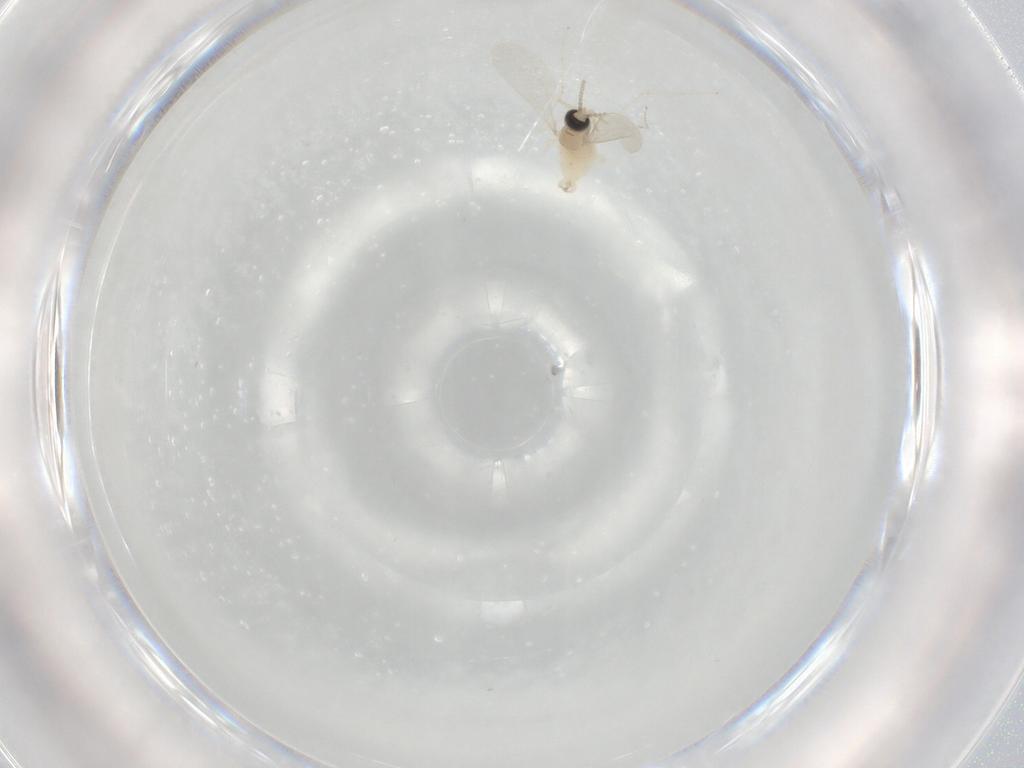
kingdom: Animalia
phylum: Arthropoda
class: Insecta
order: Diptera
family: Cecidomyiidae
